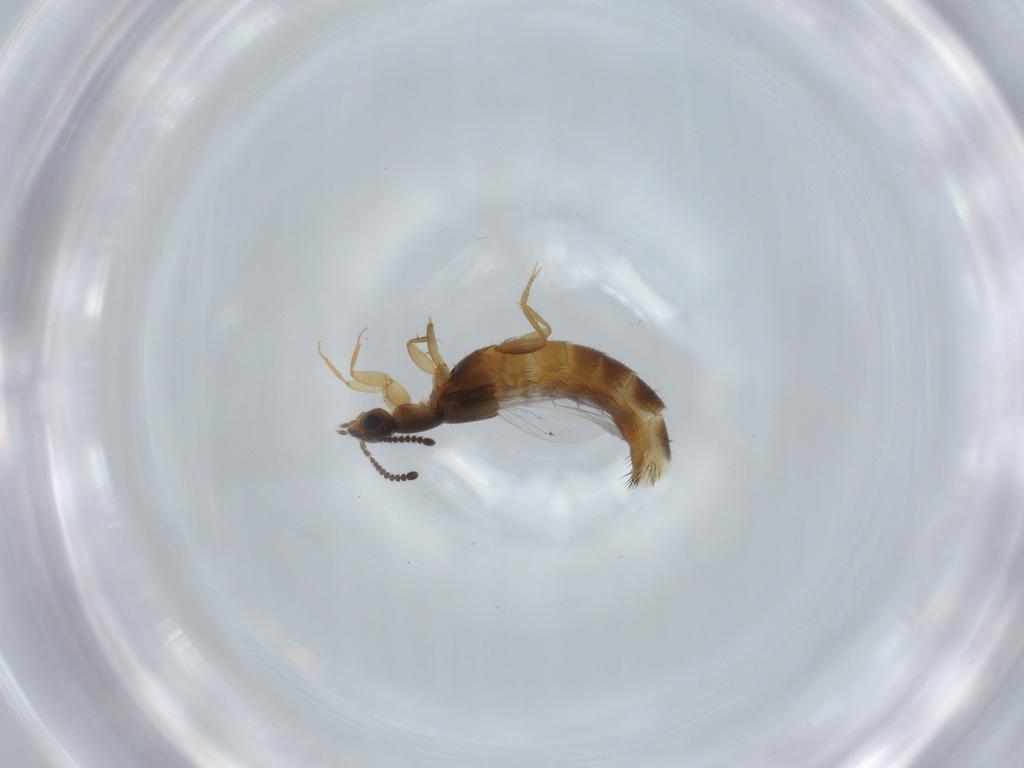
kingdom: Animalia
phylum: Arthropoda
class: Insecta
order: Coleoptera
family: Staphylinidae
